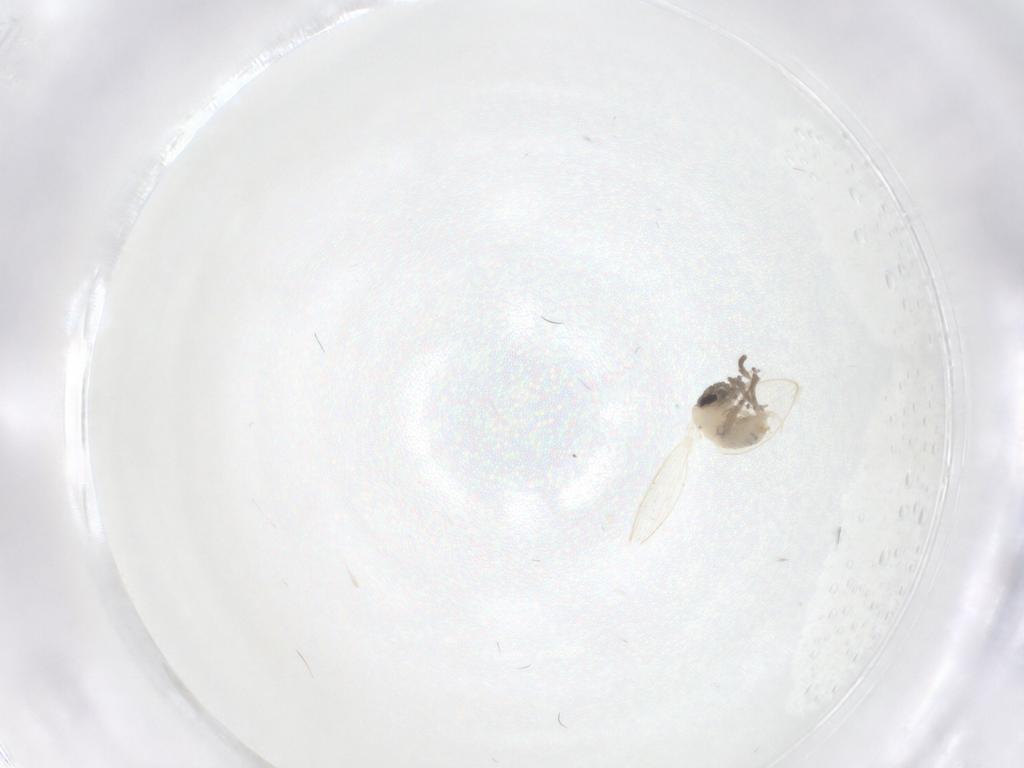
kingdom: Animalia
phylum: Arthropoda
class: Insecta
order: Diptera
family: Psychodidae
